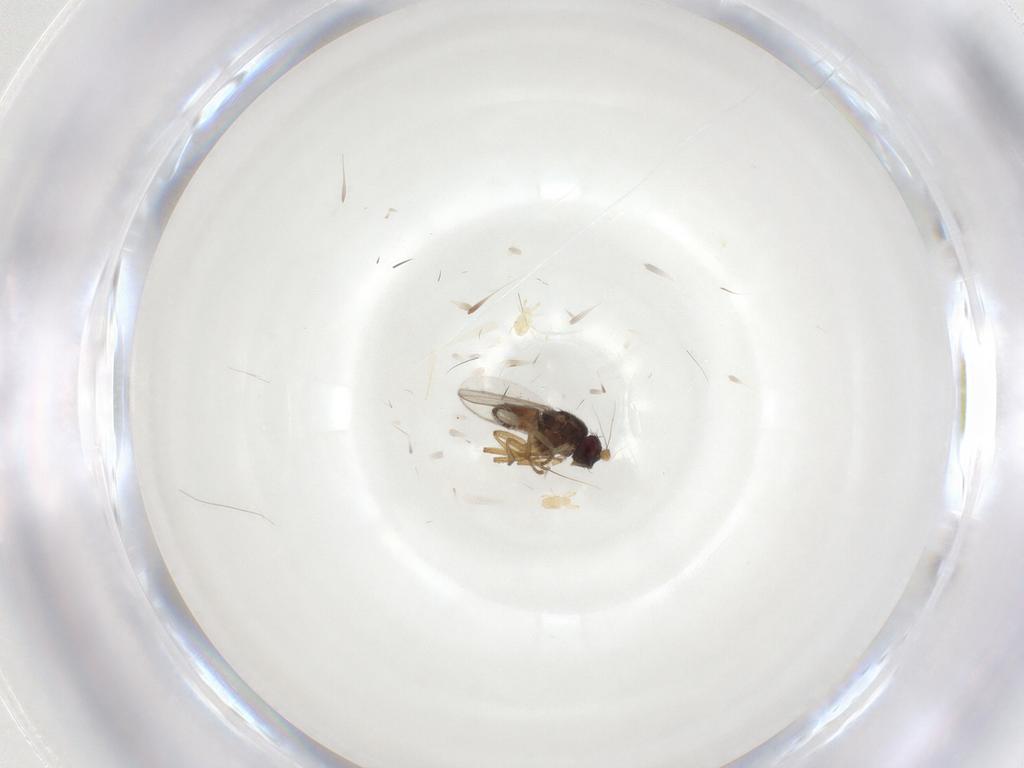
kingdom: Animalia
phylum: Arthropoda
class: Insecta
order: Diptera
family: Sphaeroceridae
